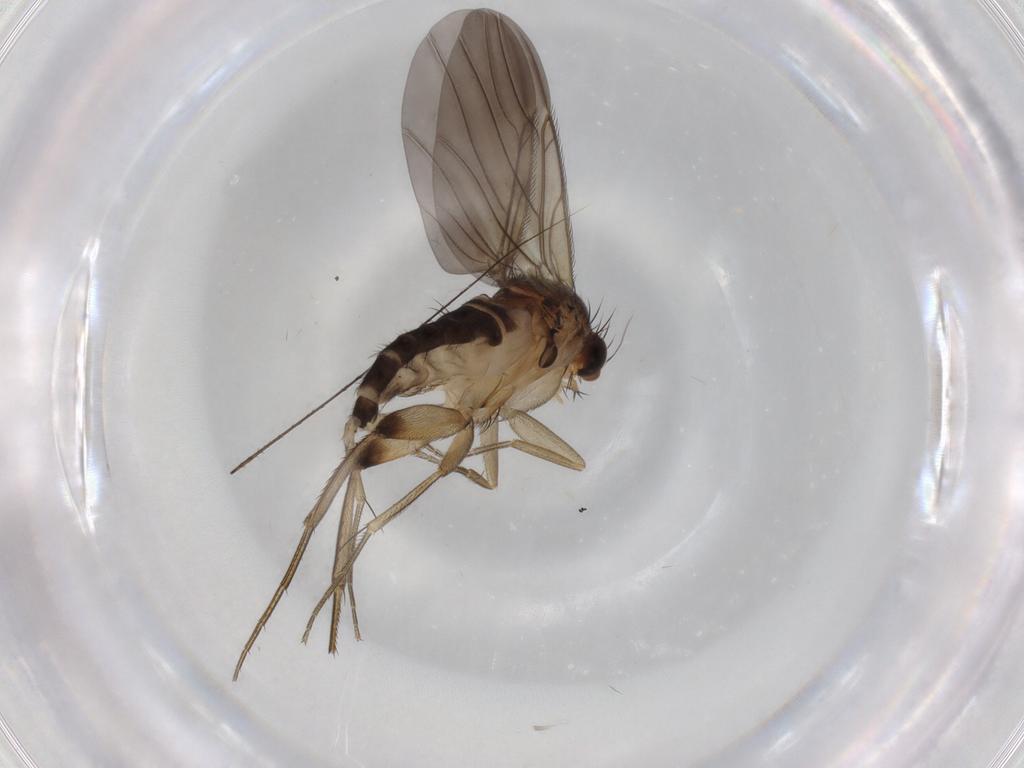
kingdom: Animalia
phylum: Arthropoda
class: Insecta
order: Diptera
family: Phoridae
